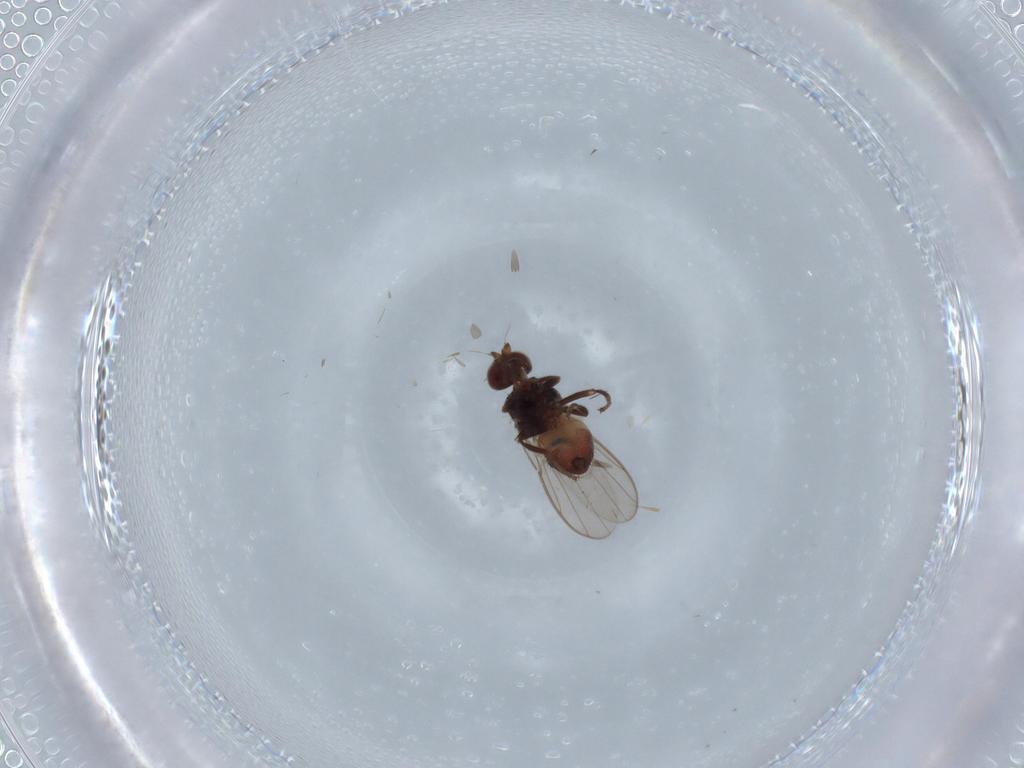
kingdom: Animalia
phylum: Arthropoda
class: Insecta
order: Diptera
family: Chloropidae
